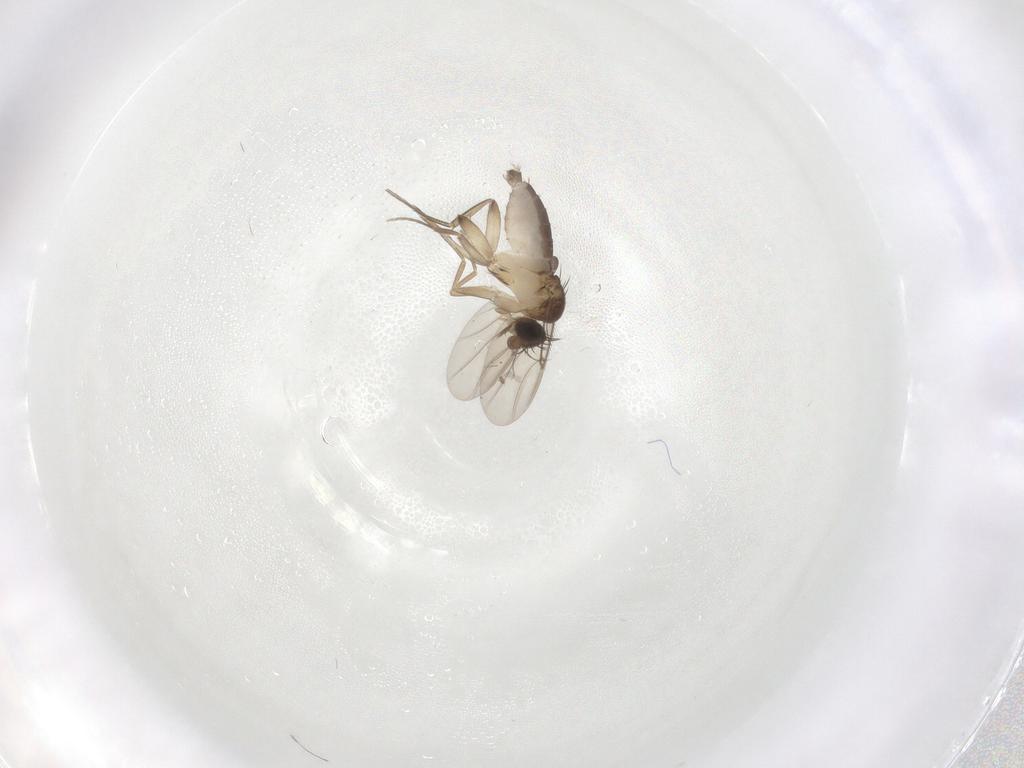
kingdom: Animalia
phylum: Arthropoda
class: Insecta
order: Diptera
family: Phoridae
